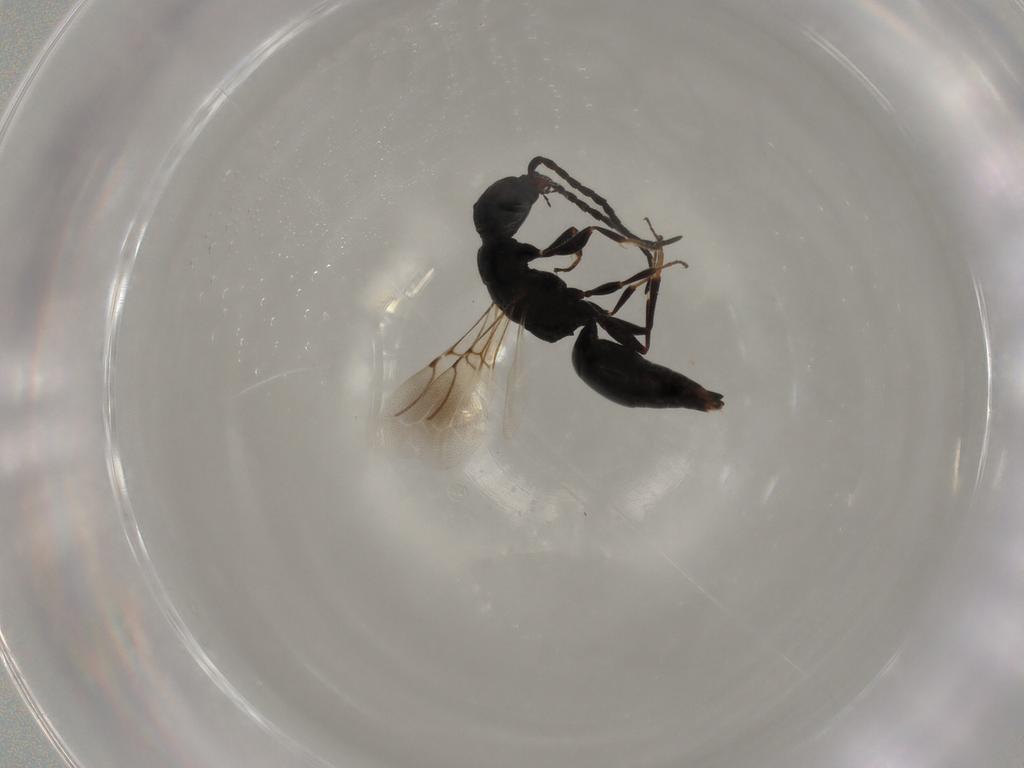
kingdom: Animalia
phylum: Arthropoda
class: Insecta
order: Hymenoptera
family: Bethylidae
